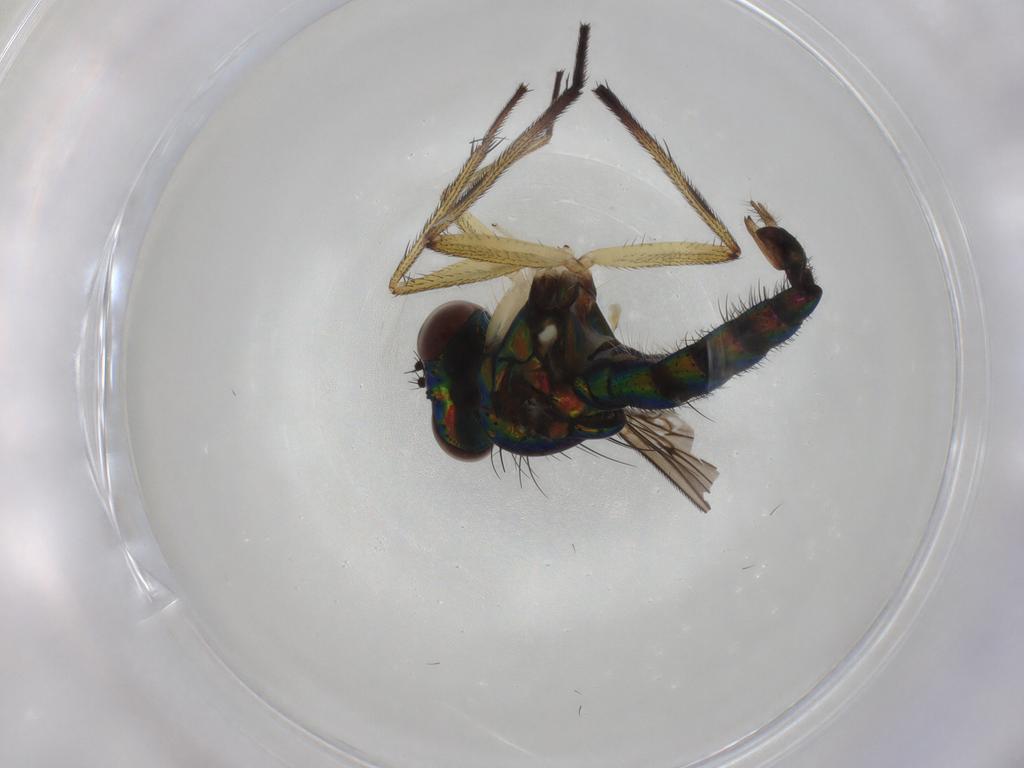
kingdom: Animalia
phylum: Arthropoda
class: Insecta
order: Diptera
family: Dolichopodidae
